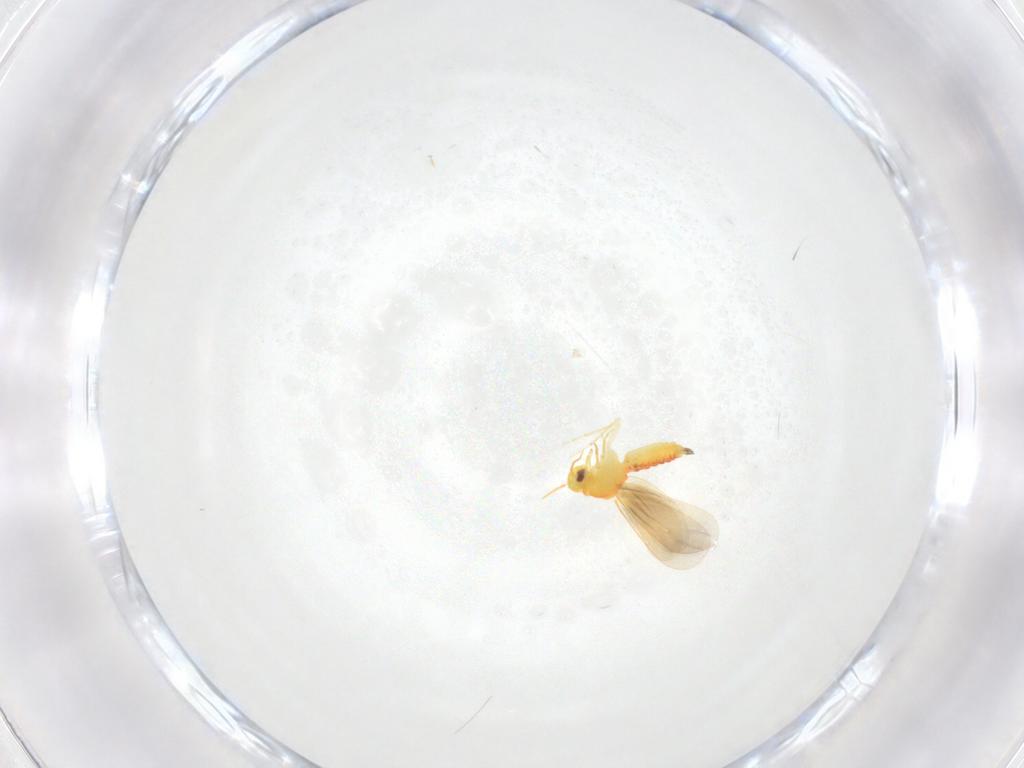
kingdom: Animalia
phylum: Arthropoda
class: Insecta
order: Hemiptera
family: Aleyrodidae
